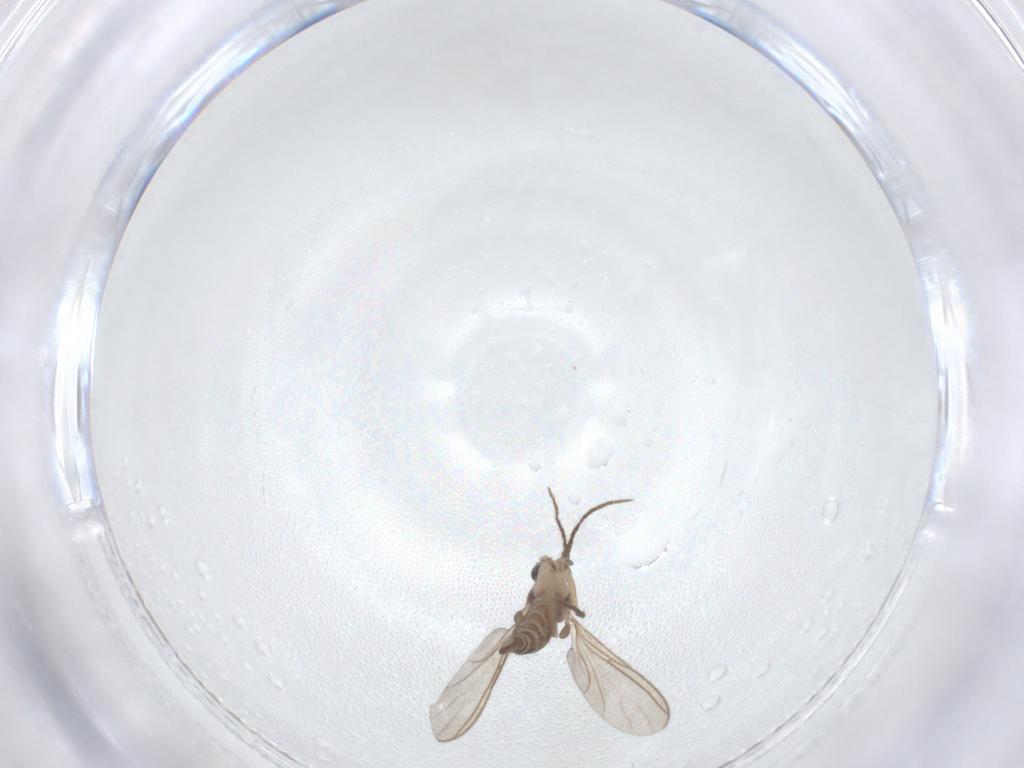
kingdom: Animalia
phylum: Arthropoda
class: Insecta
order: Diptera
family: Sciaridae
